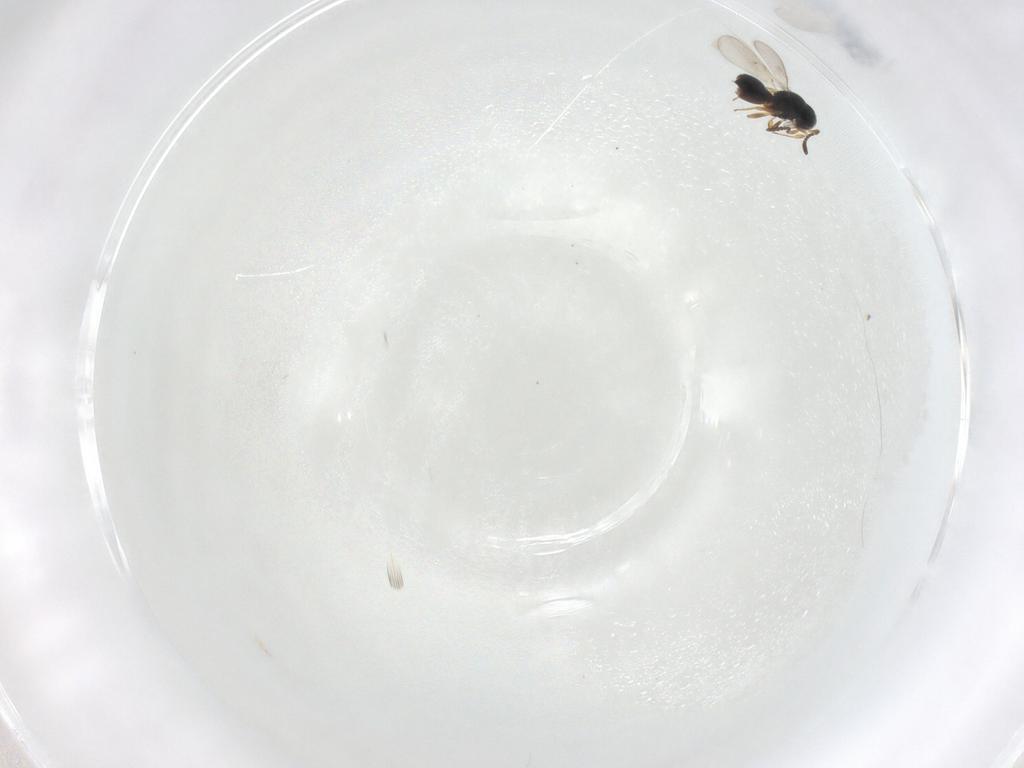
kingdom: Animalia
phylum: Arthropoda
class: Insecta
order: Hymenoptera
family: Scelionidae
